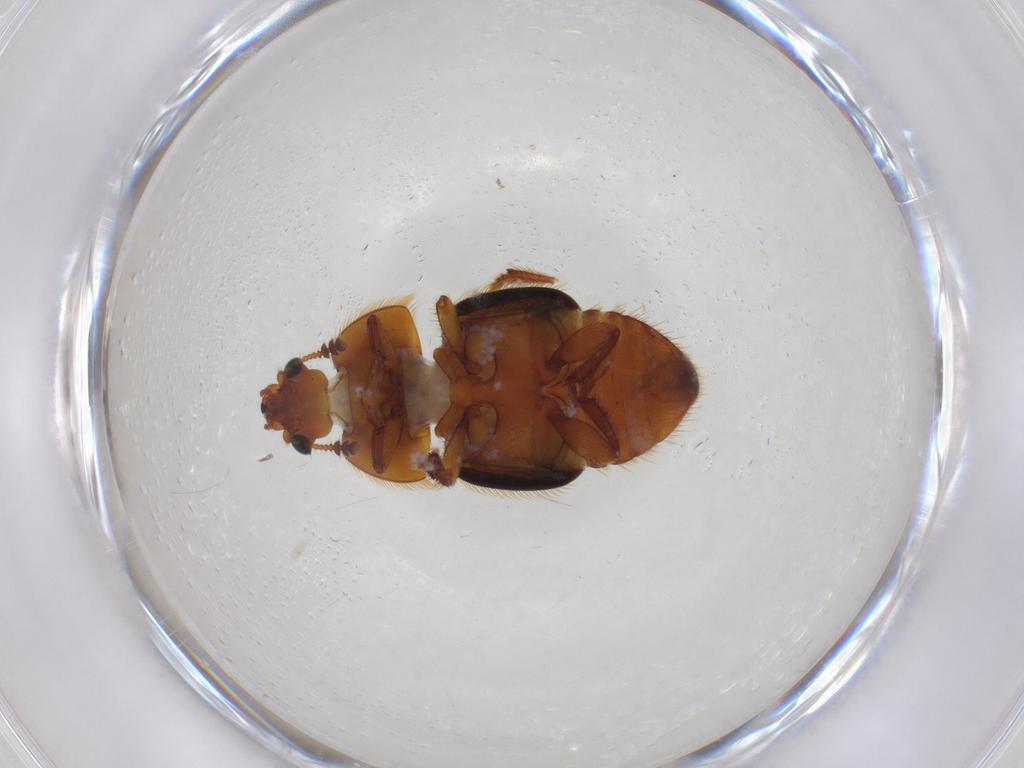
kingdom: Animalia
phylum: Arthropoda
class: Insecta
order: Coleoptera
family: Nitidulidae
